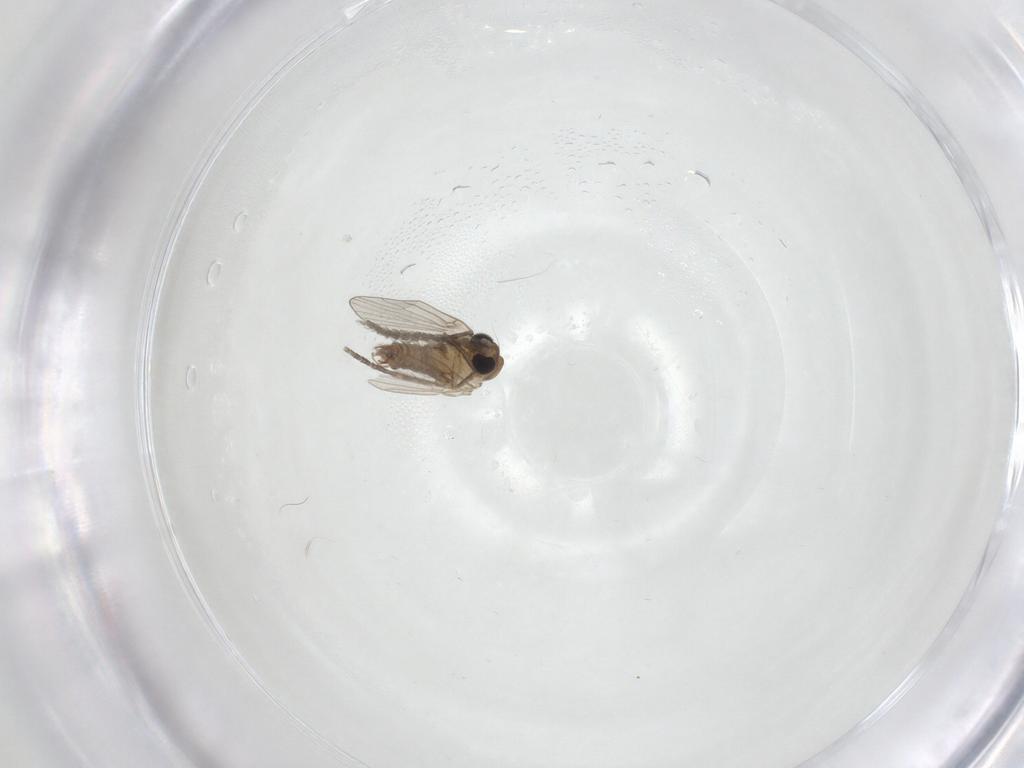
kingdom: Animalia
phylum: Arthropoda
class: Insecta
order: Diptera
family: Psychodidae
